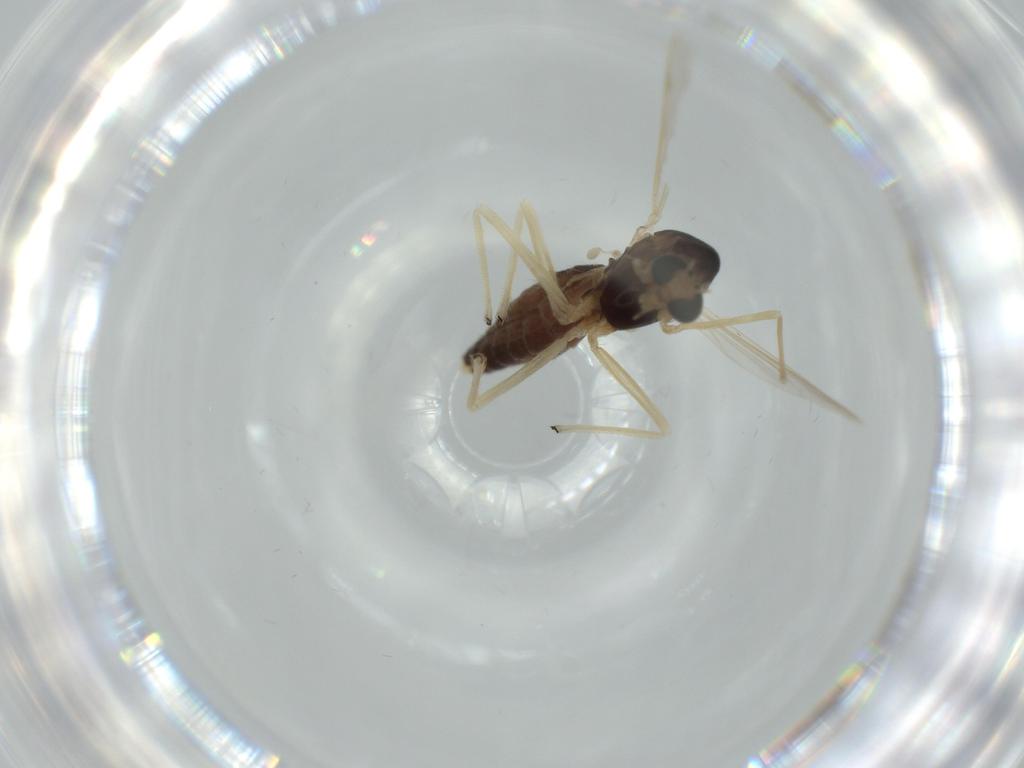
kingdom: Animalia
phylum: Arthropoda
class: Insecta
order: Diptera
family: Chironomidae
